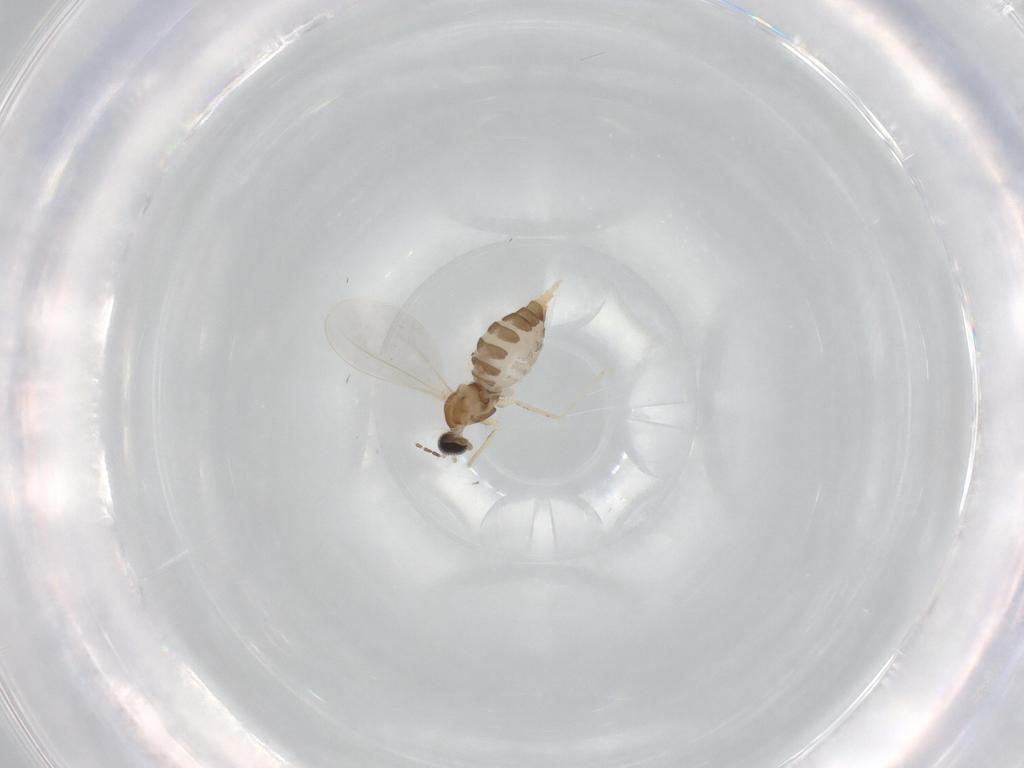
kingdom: Animalia
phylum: Arthropoda
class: Insecta
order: Diptera
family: Cecidomyiidae
